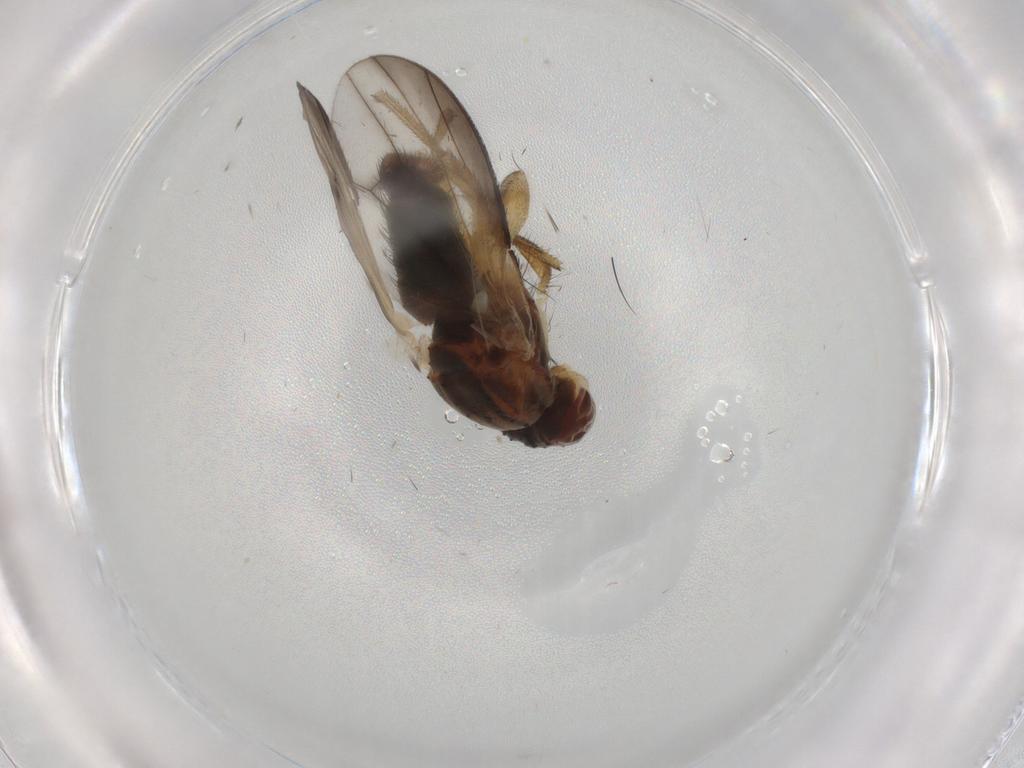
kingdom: Animalia
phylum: Arthropoda
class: Insecta
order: Diptera
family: Heleomyzidae
